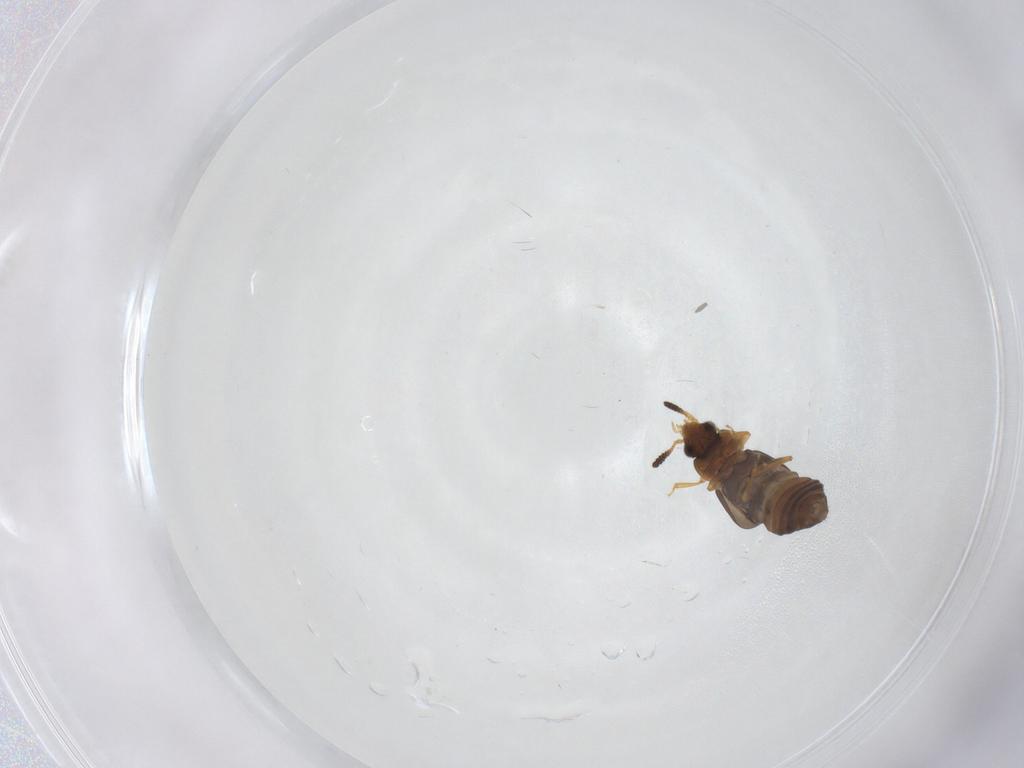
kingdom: Animalia
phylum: Arthropoda
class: Insecta
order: Coleoptera
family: Staphylinidae
